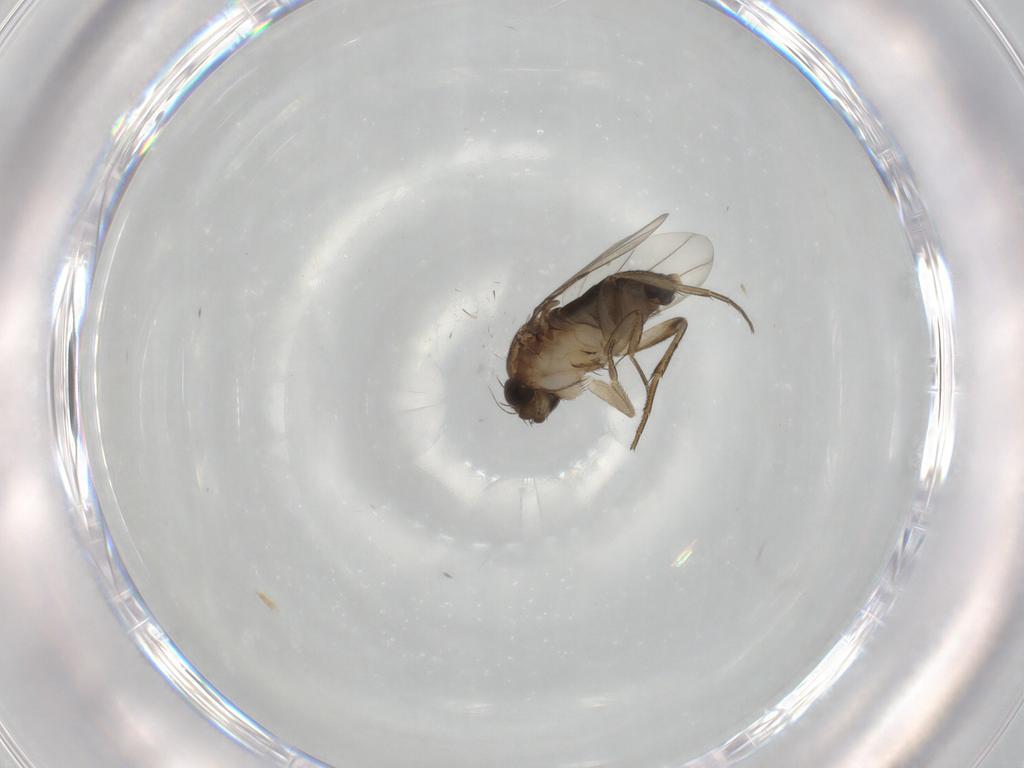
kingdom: Animalia
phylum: Arthropoda
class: Insecta
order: Diptera
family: Phoridae
